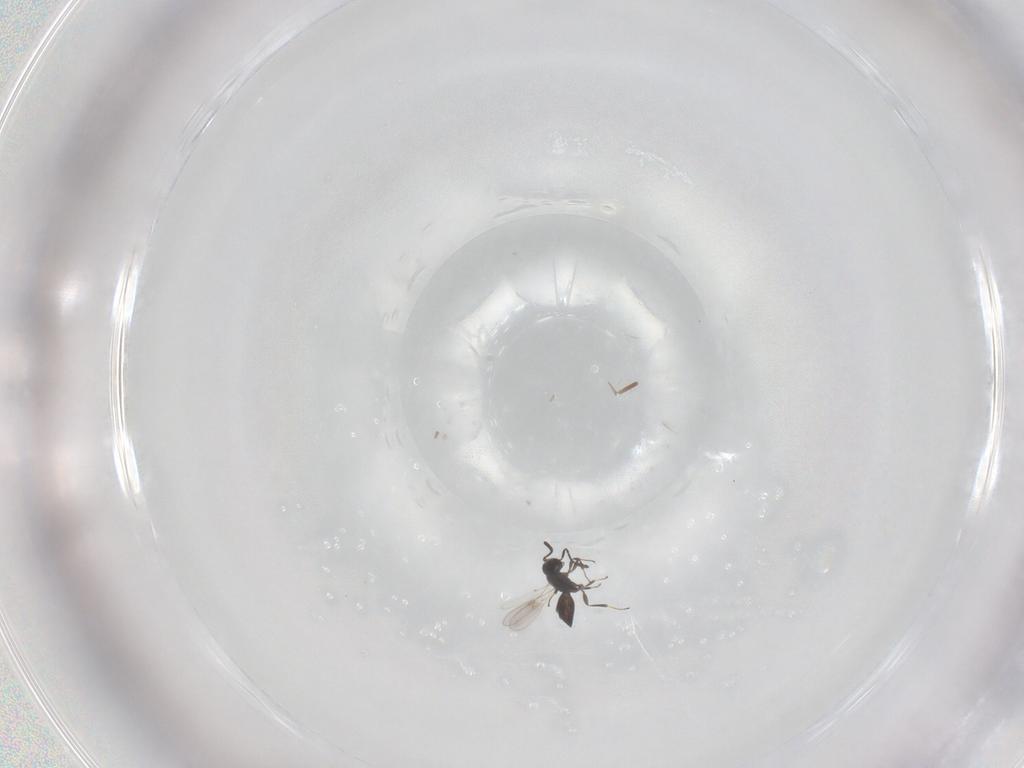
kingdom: Animalia
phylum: Arthropoda
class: Insecta
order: Hymenoptera
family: Scelionidae
